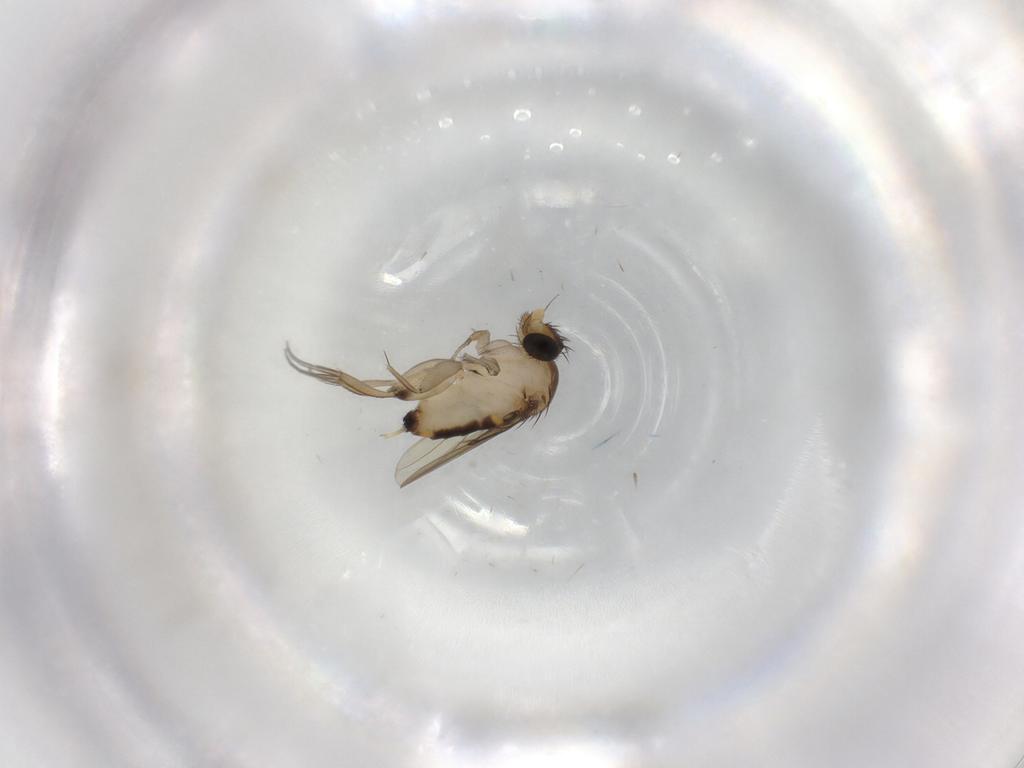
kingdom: Animalia
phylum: Arthropoda
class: Insecta
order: Diptera
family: Phoridae
